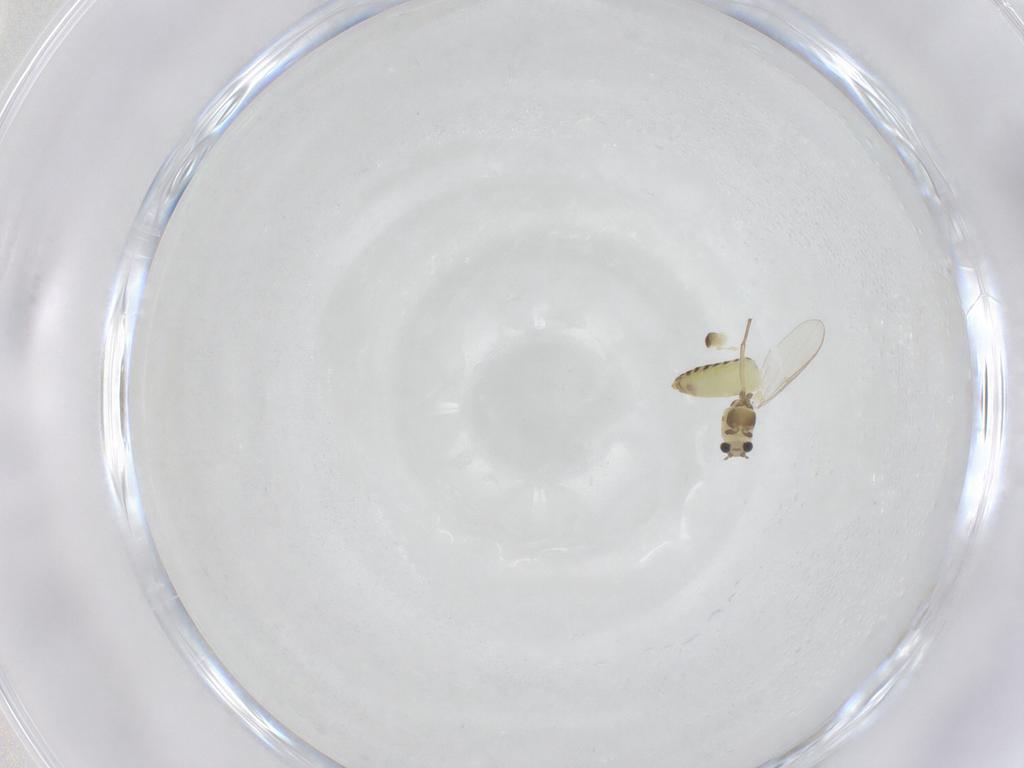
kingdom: Animalia
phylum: Arthropoda
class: Insecta
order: Diptera
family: Chironomidae
